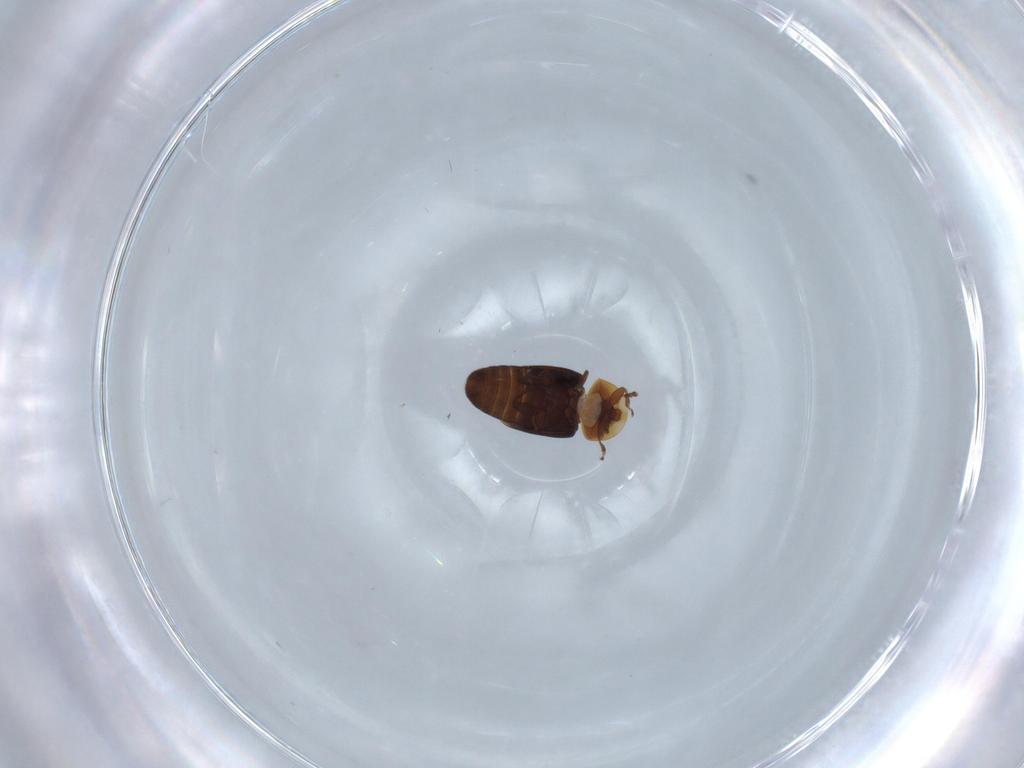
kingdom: Animalia
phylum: Arthropoda
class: Insecta
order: Coleoptera
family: Corylophidae
